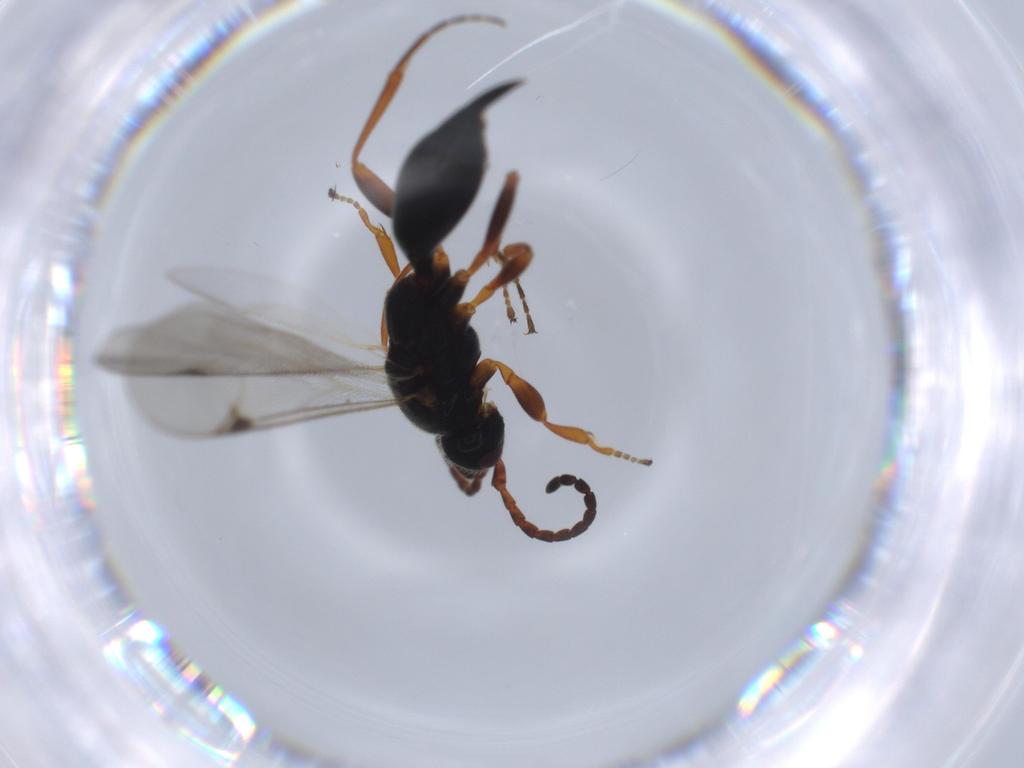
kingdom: Animalia
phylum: Arthropoda
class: Insecta
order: Hymenoptera
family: Proctotrupidae
